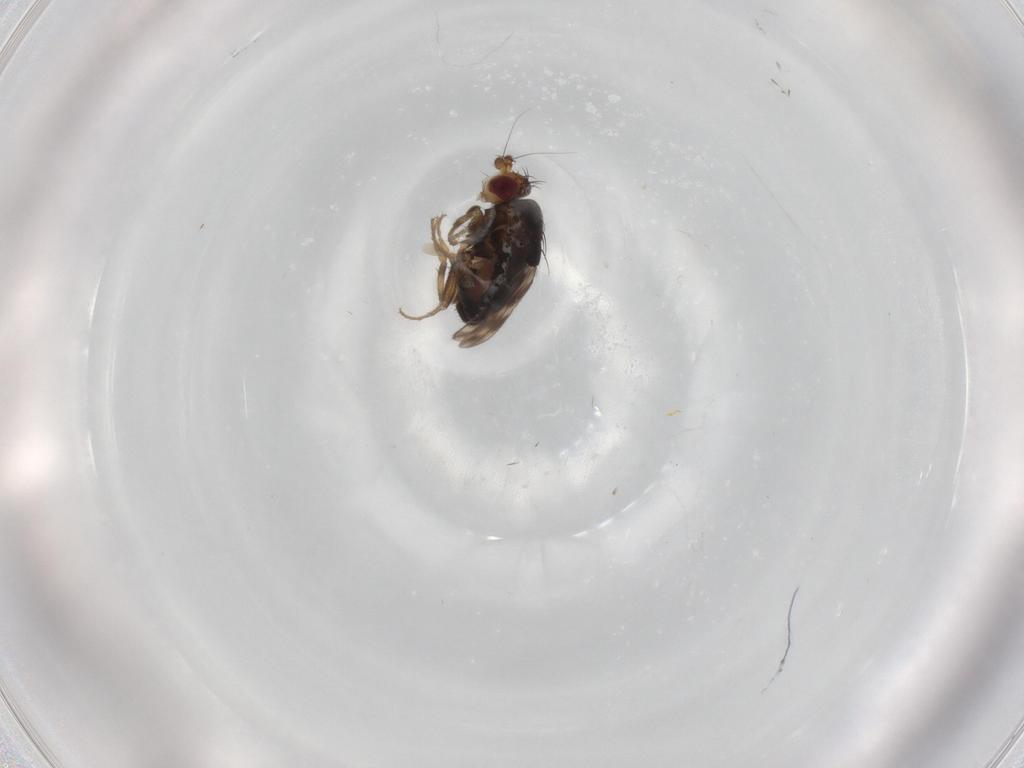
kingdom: Animalia
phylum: Arthropoda
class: Insecta
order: Diptera
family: Sphaeroceridae
